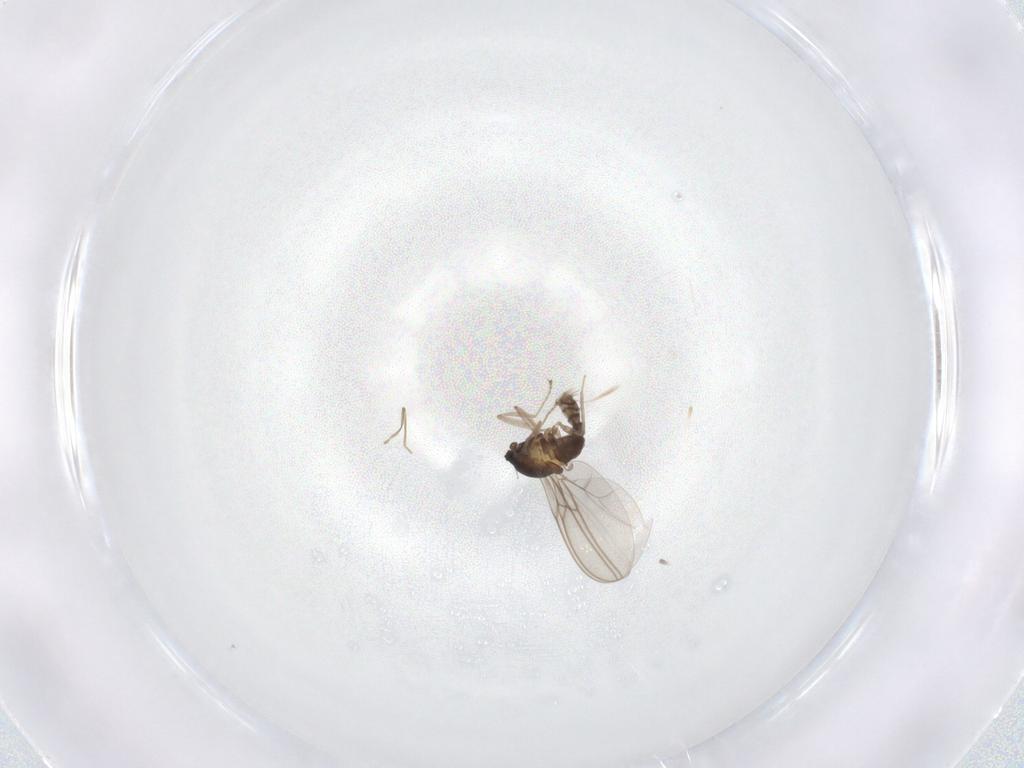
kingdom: Animalia
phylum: Arthropoda
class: Insecta
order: Diptera
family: Cecidomyiidae
